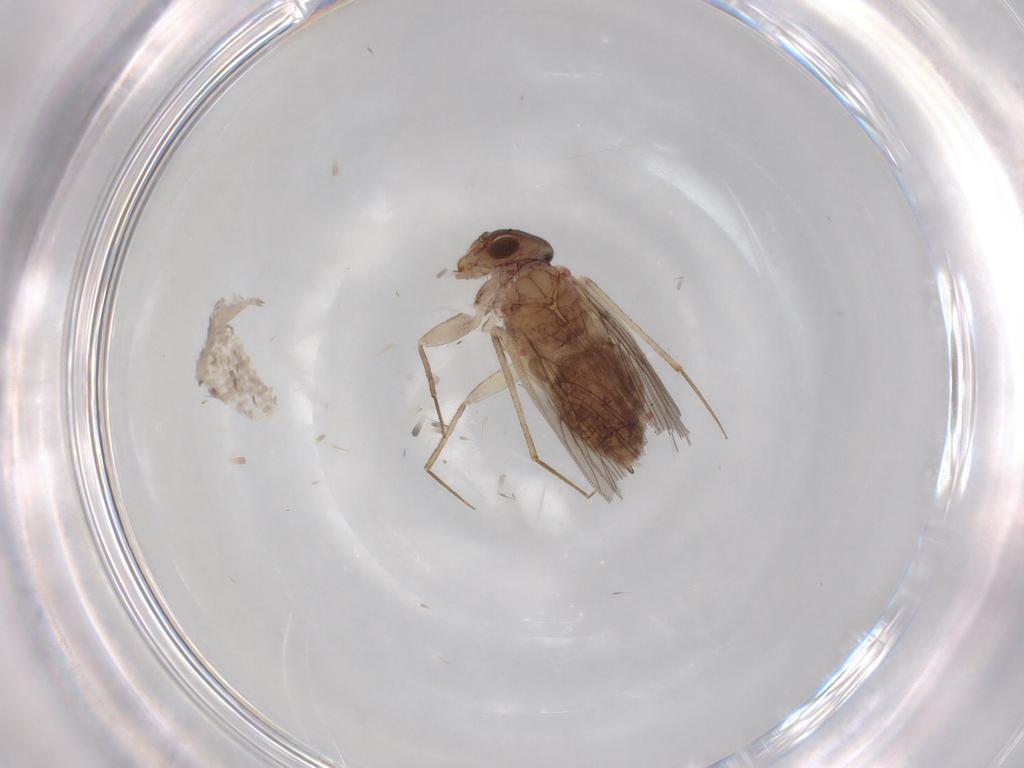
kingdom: Animalia
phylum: Arthropoda
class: Insecta
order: Psocodea
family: Lepidopsocidae
